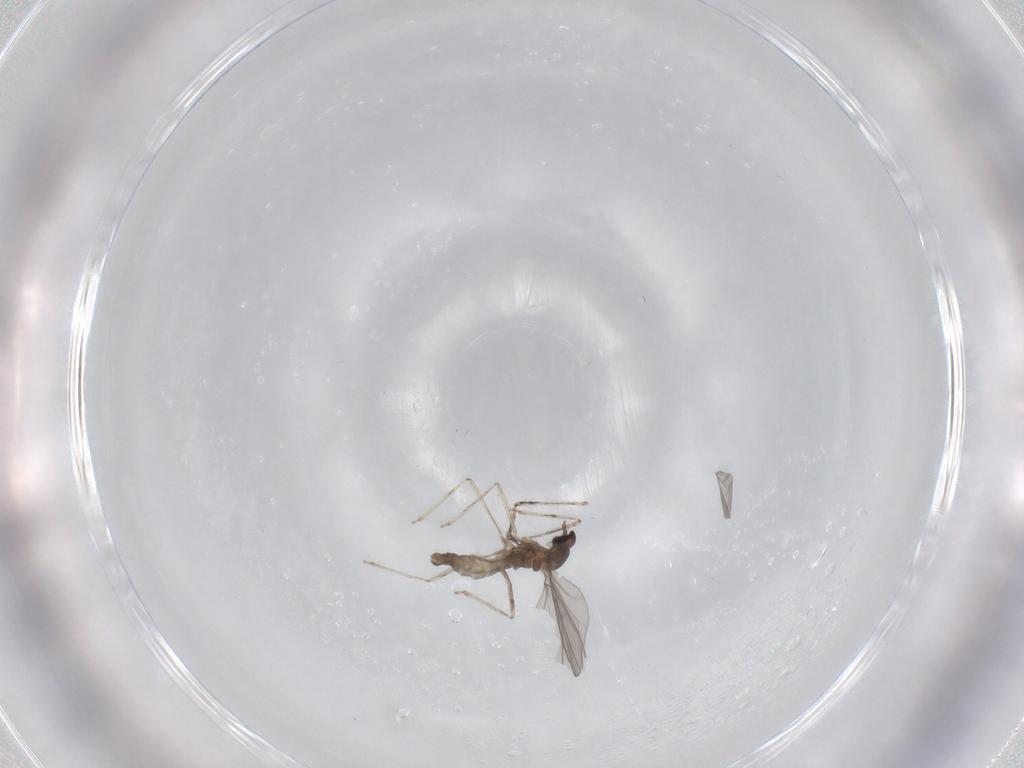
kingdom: Animalia
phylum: Arthropoda
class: Insecta
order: Diptera
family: Cecidomyiidae
